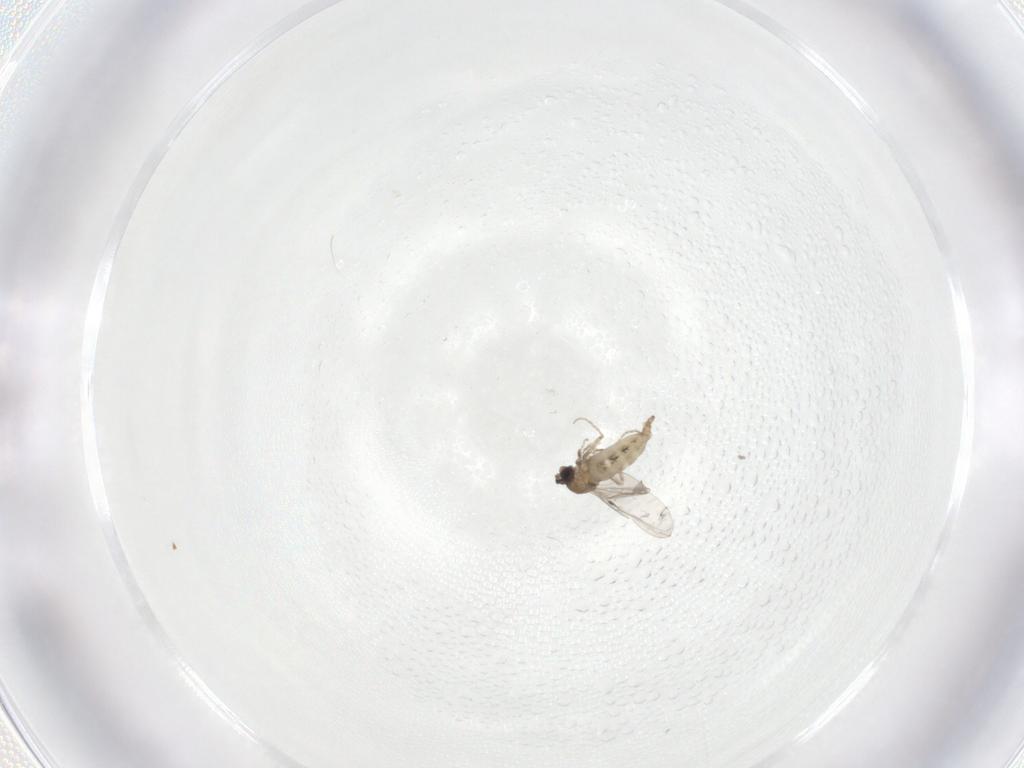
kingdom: Animalia
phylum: Arthropoda
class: Insecta
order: Diptera
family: Cecidomyiidae
